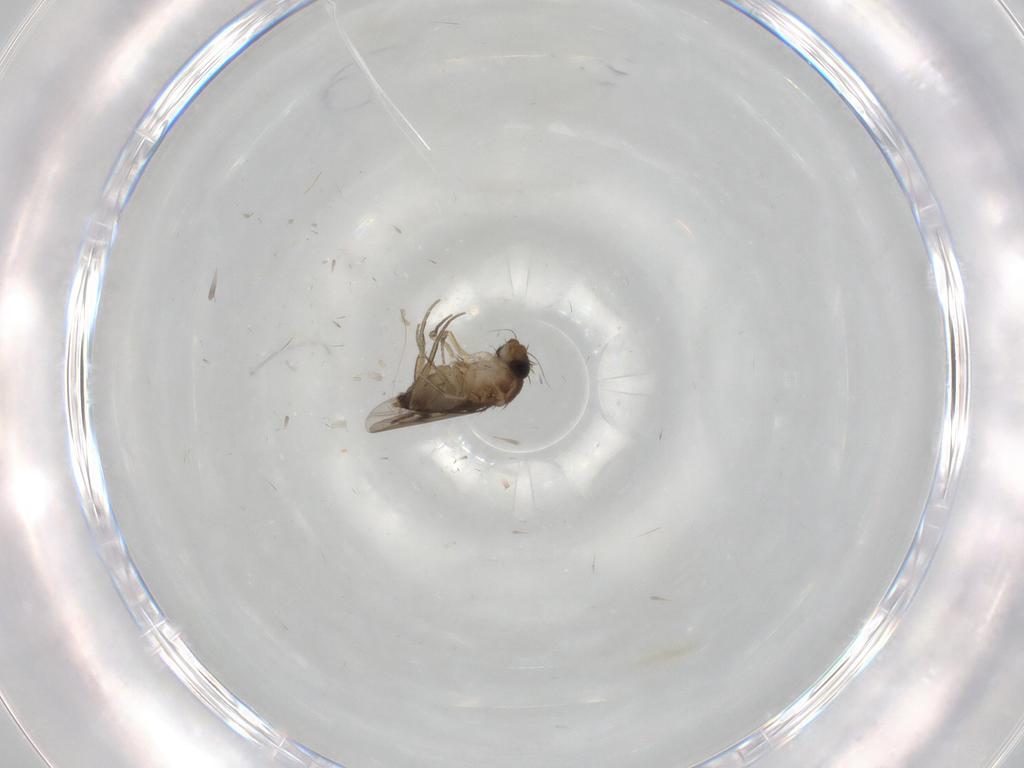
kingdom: Animalia
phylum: Arthropoda
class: Insecta
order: Diptera
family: Phoridae
